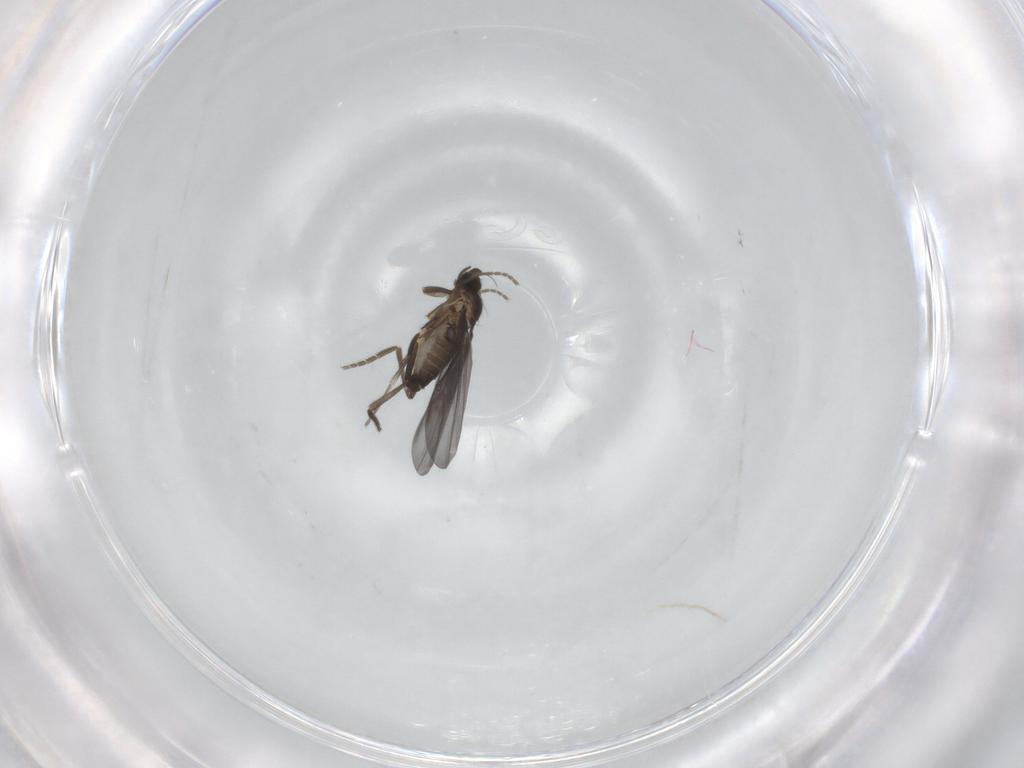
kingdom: Animalia
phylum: Arthropoda
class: Insecta
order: Diptera
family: Phoridae
